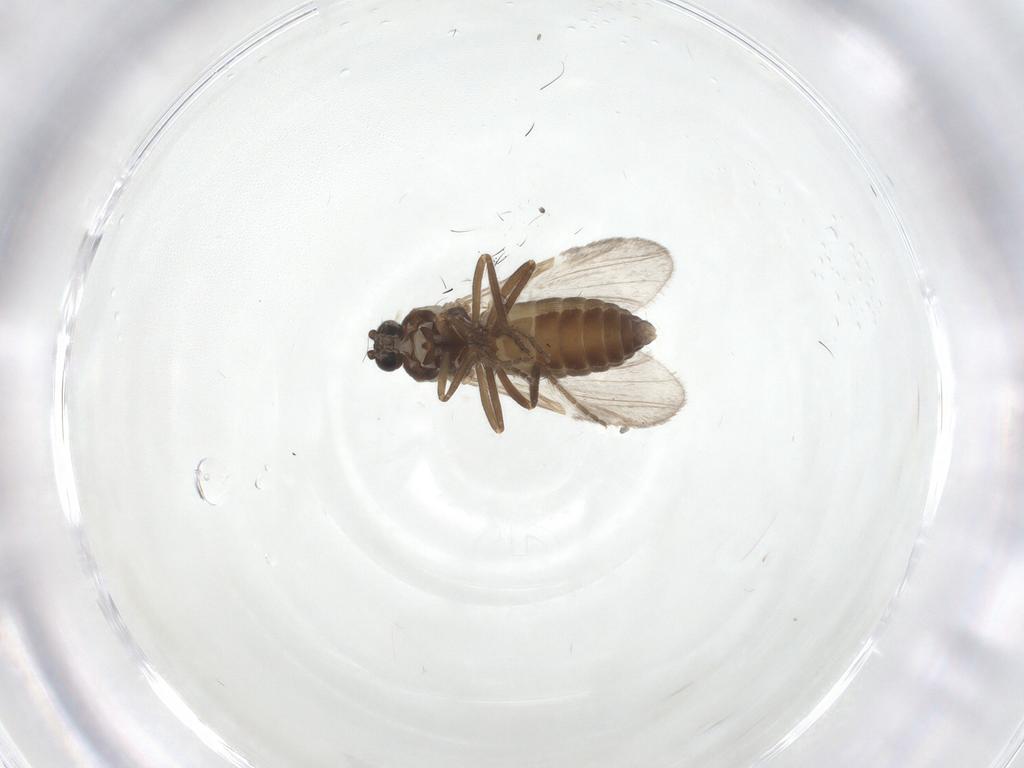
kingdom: Animalia
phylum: Arthropoda
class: Insecta
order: Diptera
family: Ceratopogonidae
